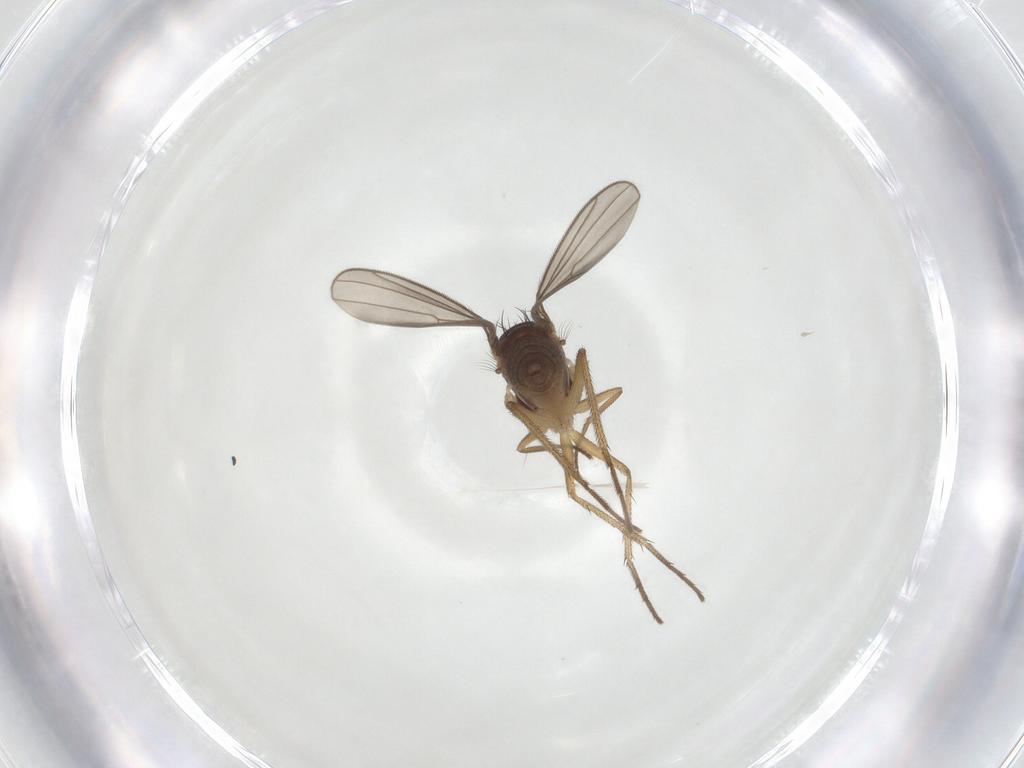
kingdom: Animalia
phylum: Arthropoda
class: Insecta
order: Diptera
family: Dolichopodidae
